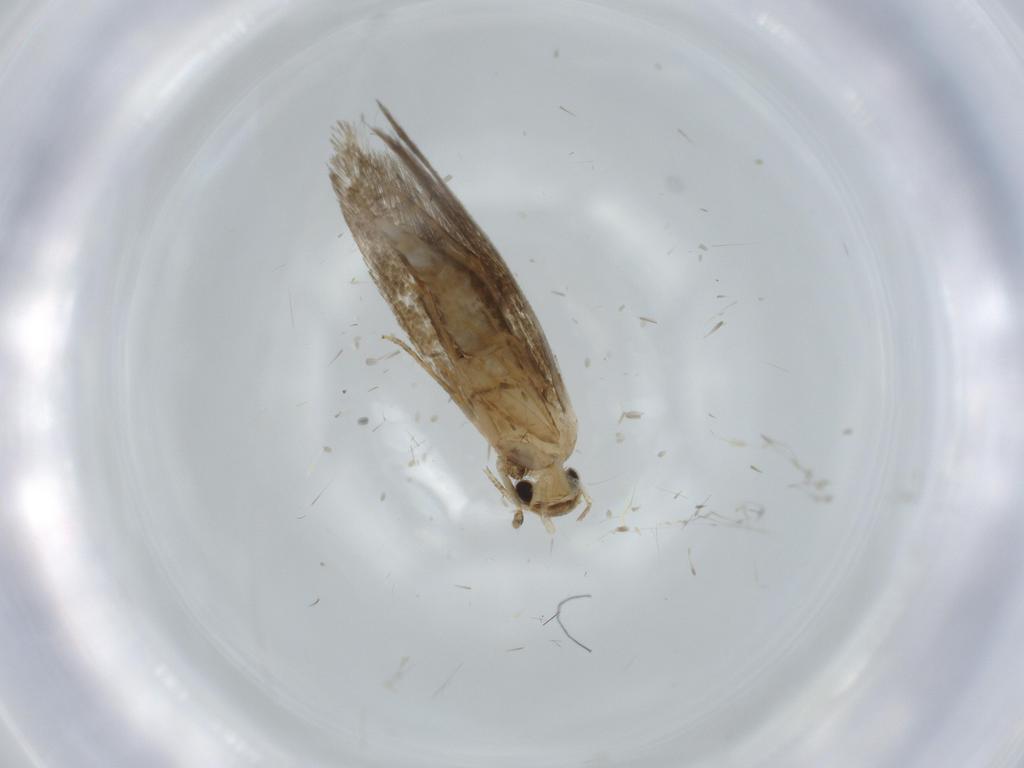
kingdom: Animalia
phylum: Arthropoda
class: Insecta
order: Lepidoptera
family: Tineidae
